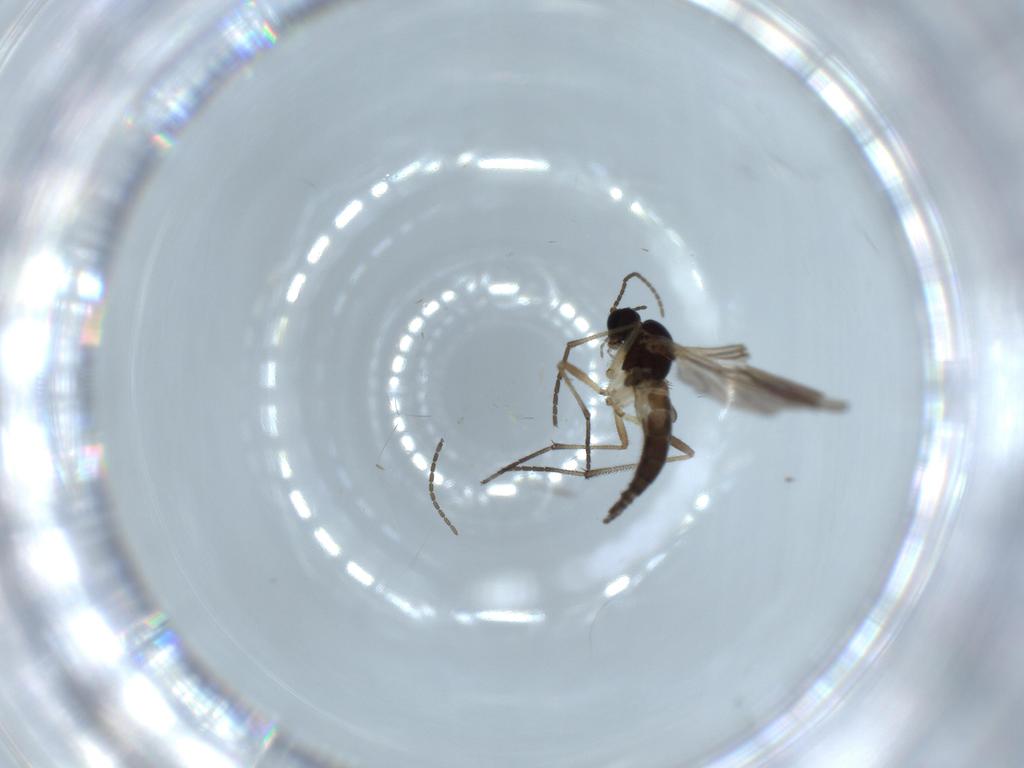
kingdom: Animalia
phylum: Arthropoda
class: Insecta
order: Diptera
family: Sciaridae
